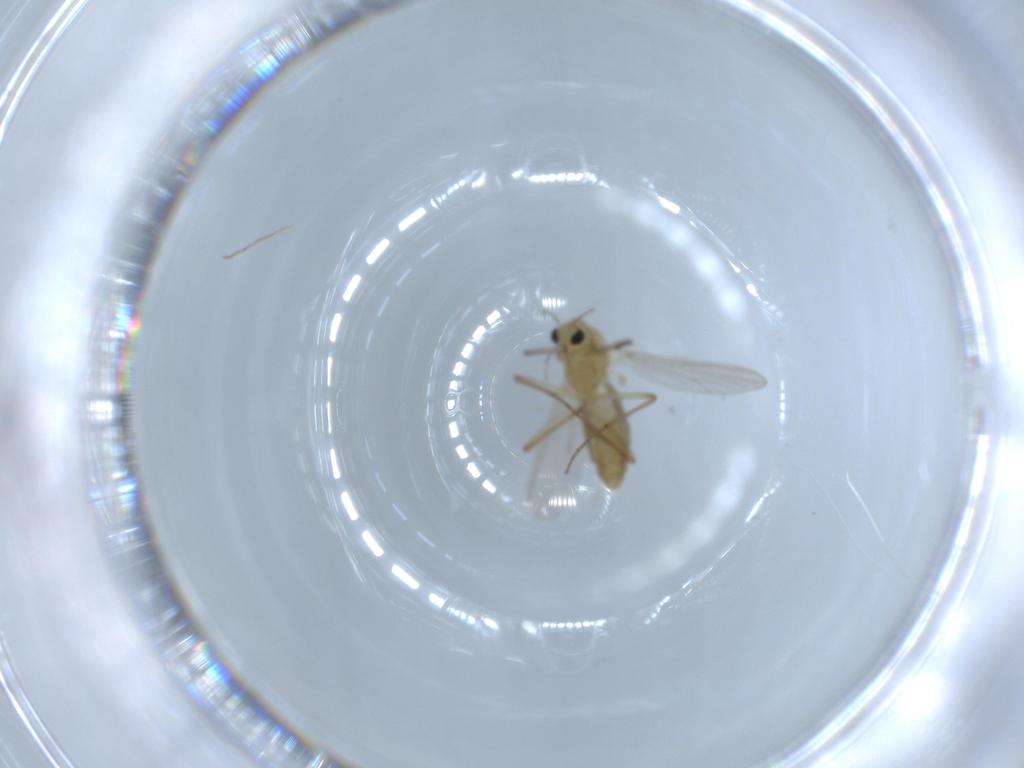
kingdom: Animalia
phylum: Arthropoda
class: Insecta
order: Diptera
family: Chironomidae
